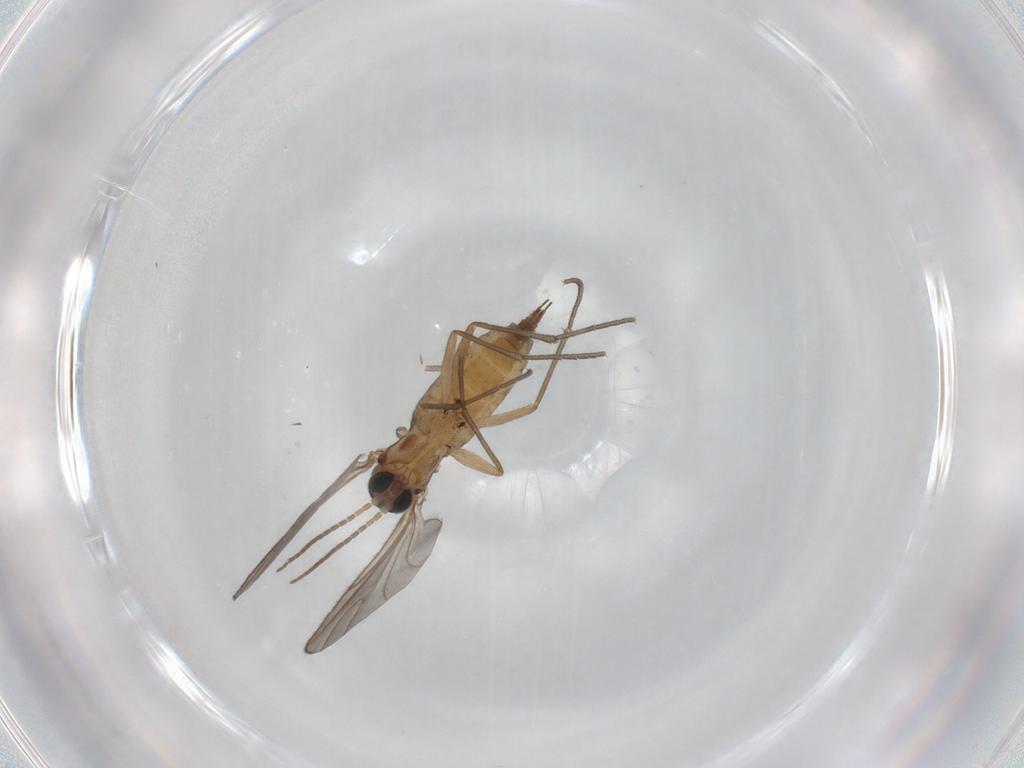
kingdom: Animalia
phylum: Arthropoda
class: Insecta
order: Diptera
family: Sciaridae
